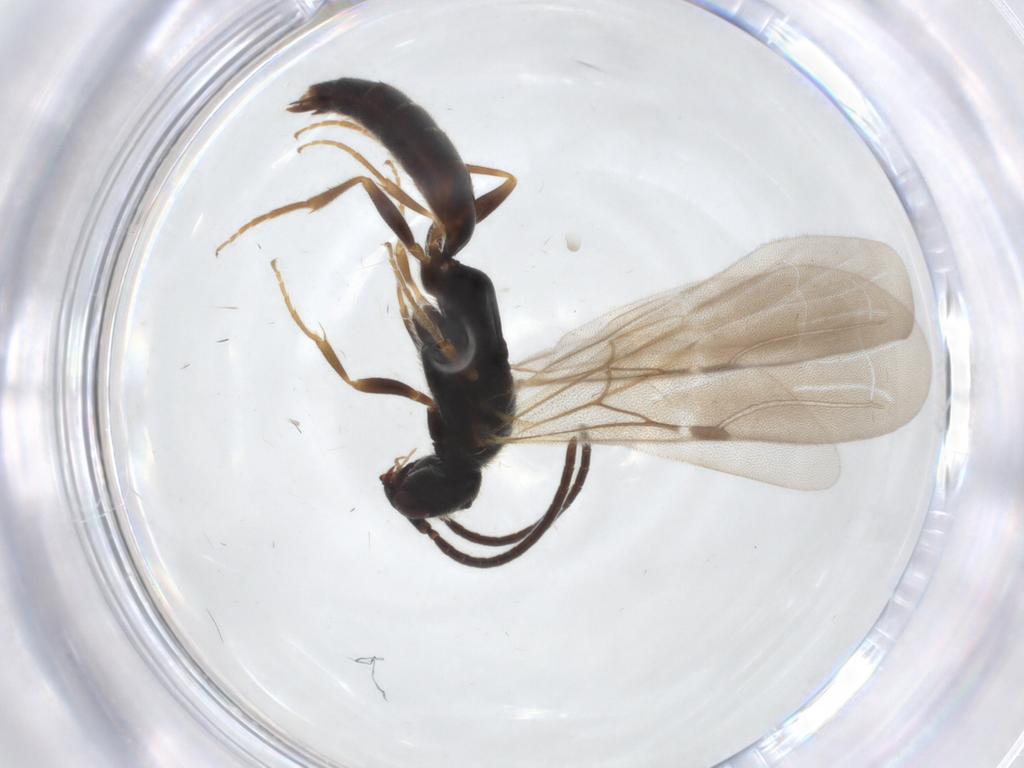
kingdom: Animalia
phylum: Arthropoda
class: Insecta
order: Hymenoptera
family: Bethylidae
